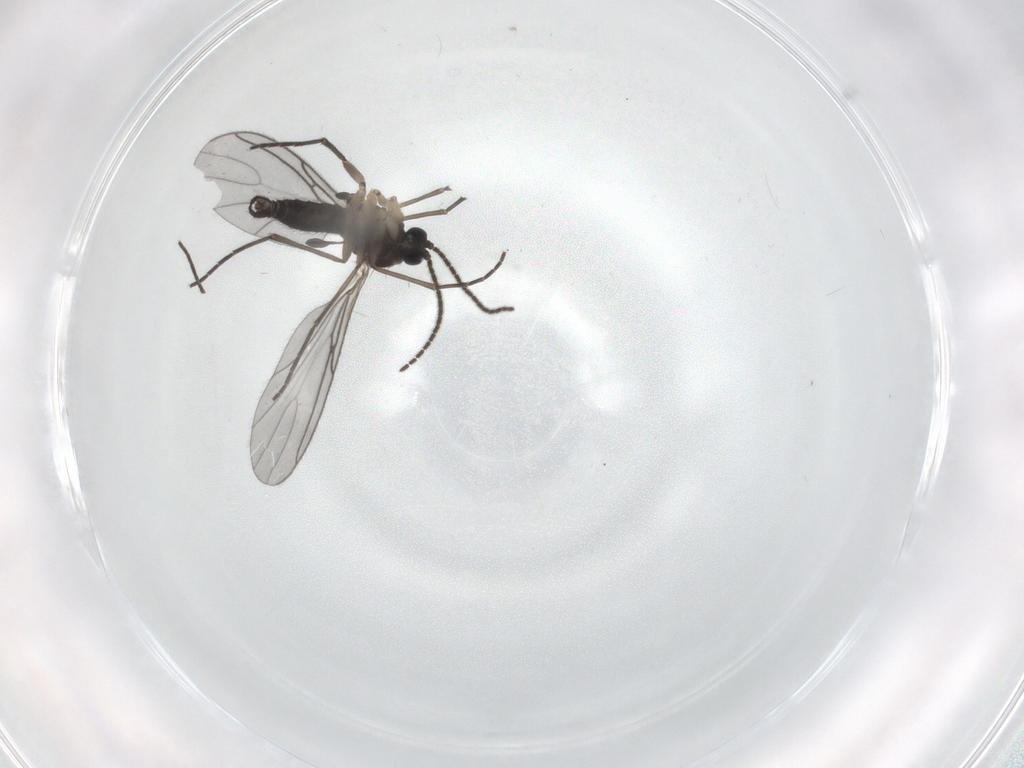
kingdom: Animalia
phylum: Arthropoda
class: Insecta
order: Diptera
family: Sciaridae
